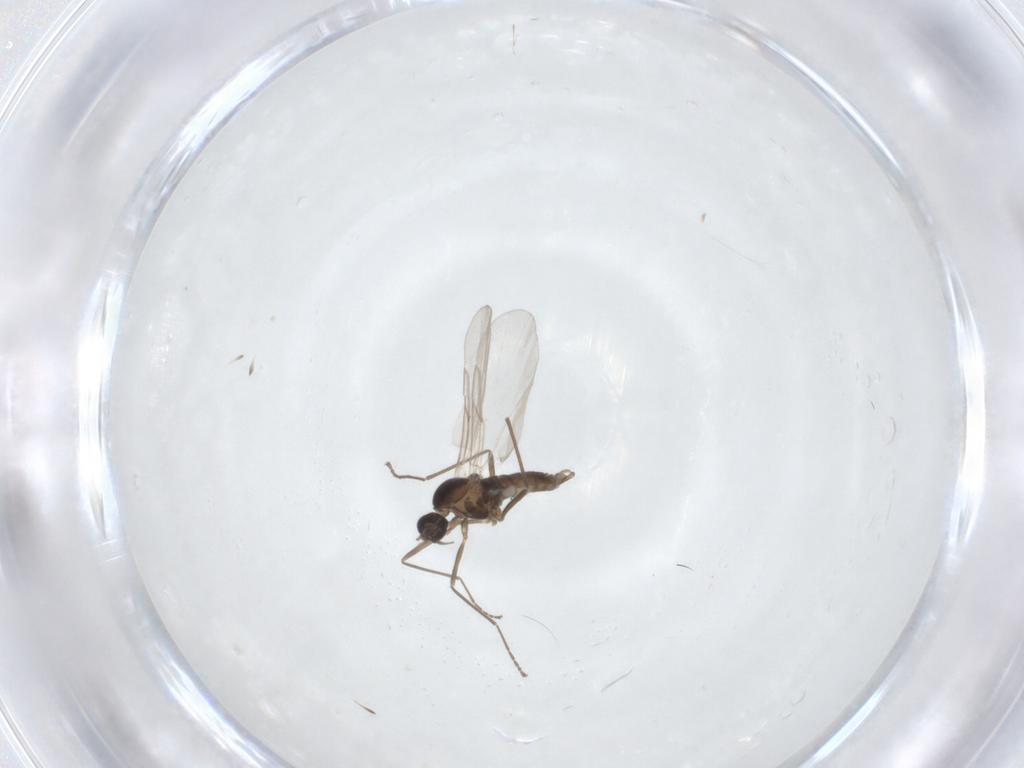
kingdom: Animalia
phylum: Arthropoda
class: Insecta
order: Diptera
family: Cecidomyiidae
